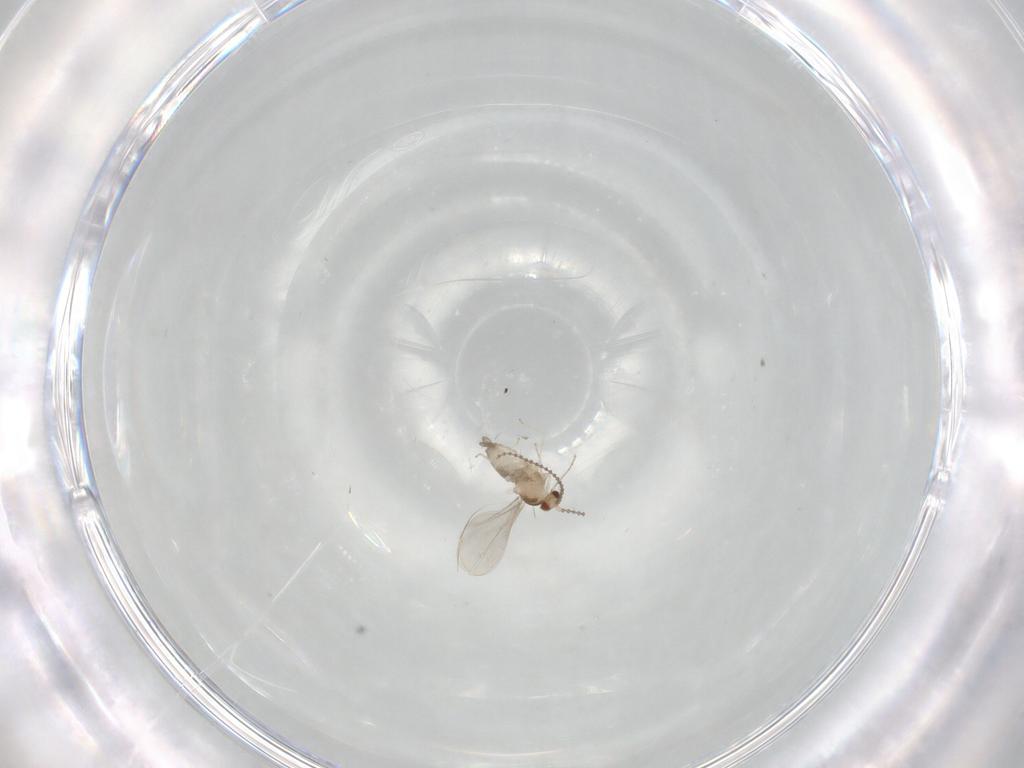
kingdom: Animalia
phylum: Arthropoda
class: Insecta
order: Diptera
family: Cecidomyiidae
